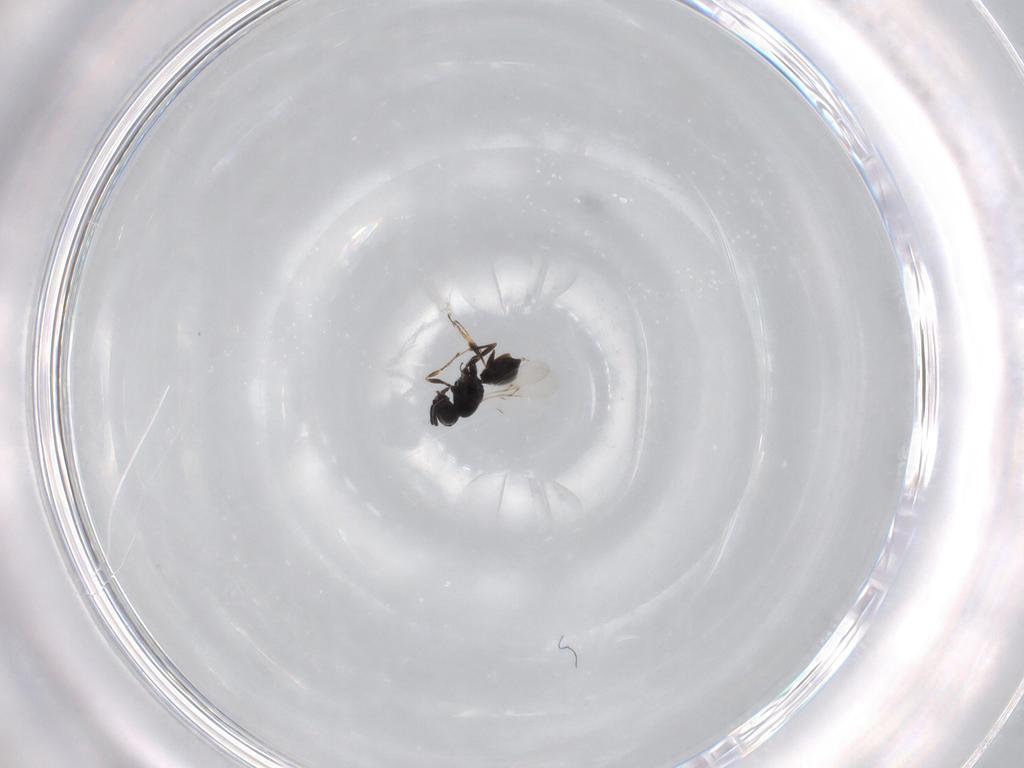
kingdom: Animalia
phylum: Arthropoda
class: Insecta
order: Hymenoptera
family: Scelionidae
